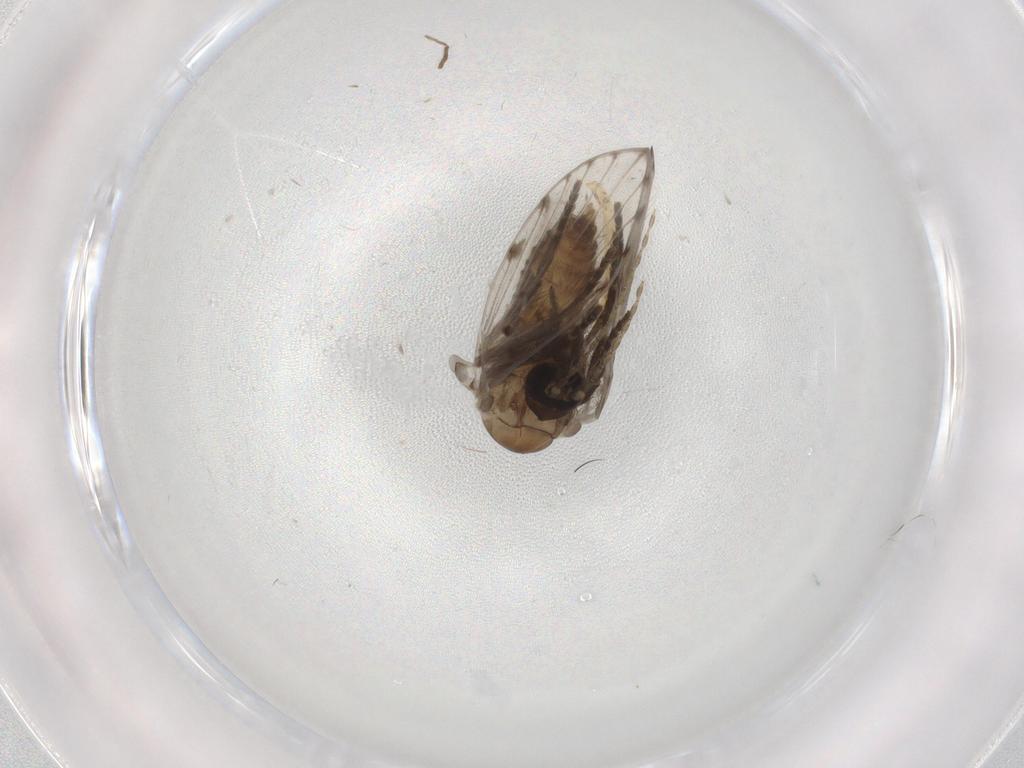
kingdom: Animalia
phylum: Arthropoda
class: Insecta
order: Diptera
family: Psychodidae
